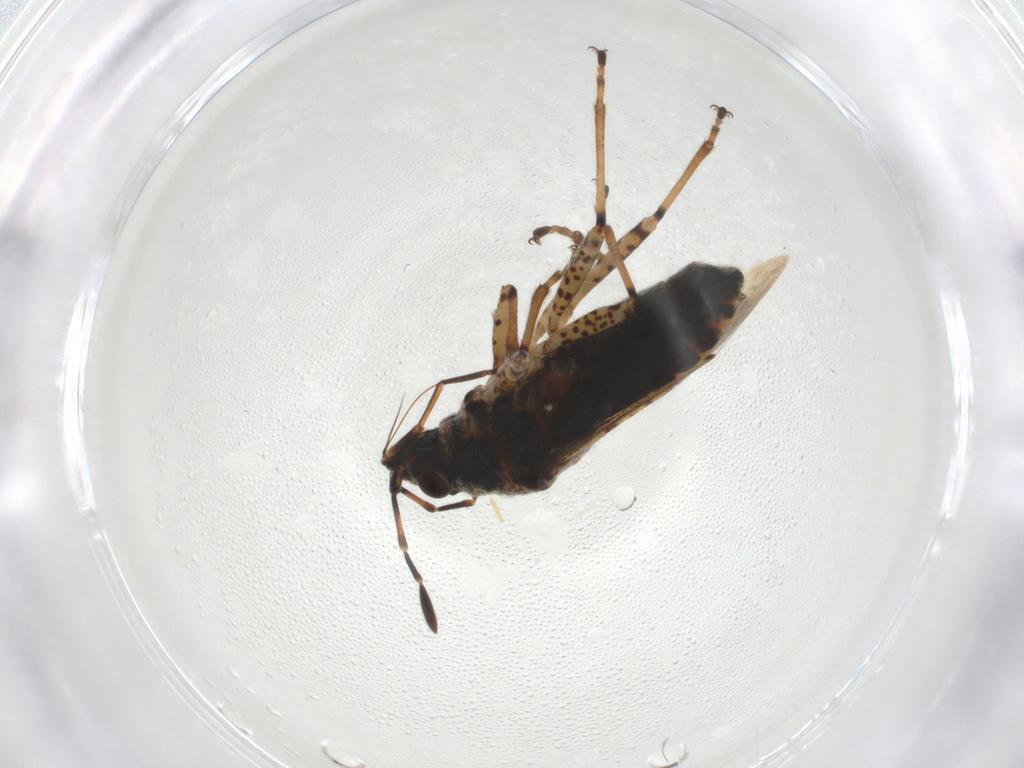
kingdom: Animalia
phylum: Arthropoda
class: Insecta
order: Hemiptera
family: Lygaeidae
